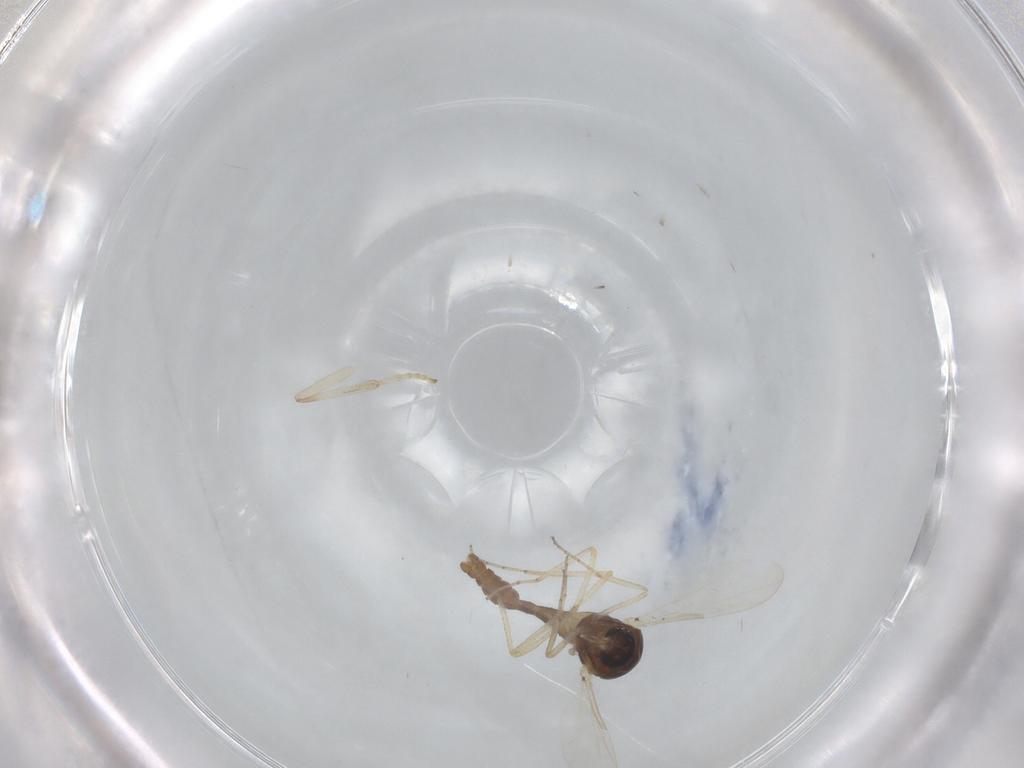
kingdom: Animalia
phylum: Arthropoda
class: Insecta
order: Diptera
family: Ceratopogonidae
